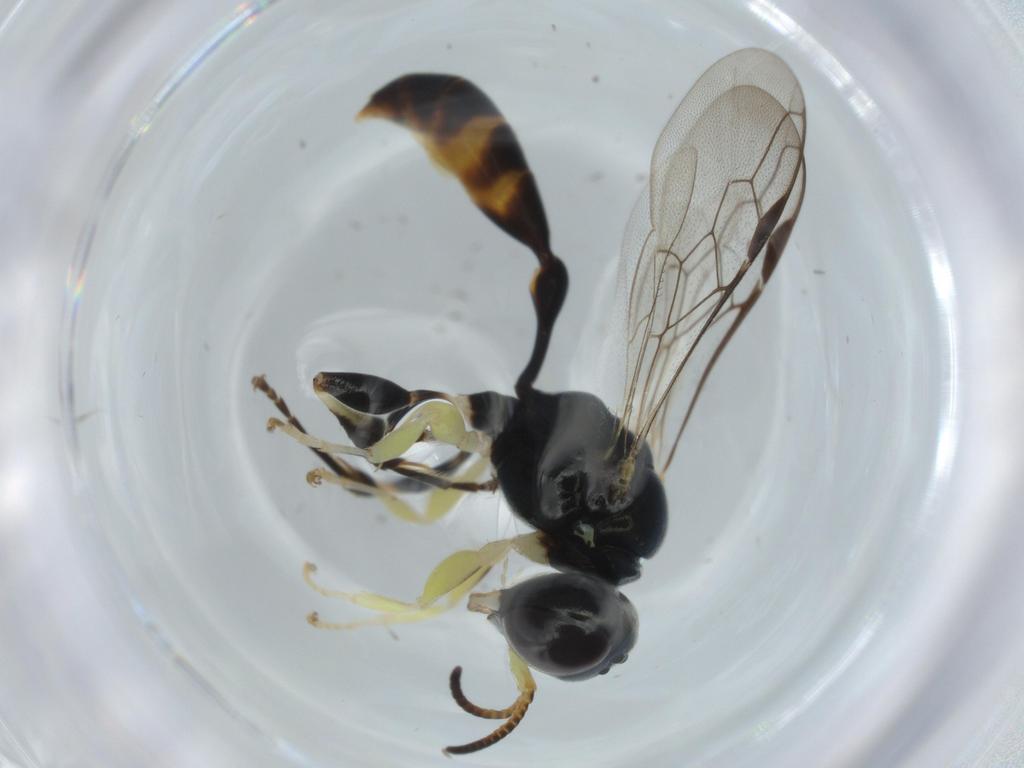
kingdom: Animalia
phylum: Arthropoda
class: Insecta
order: Hymenoptera
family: Crabronidae
